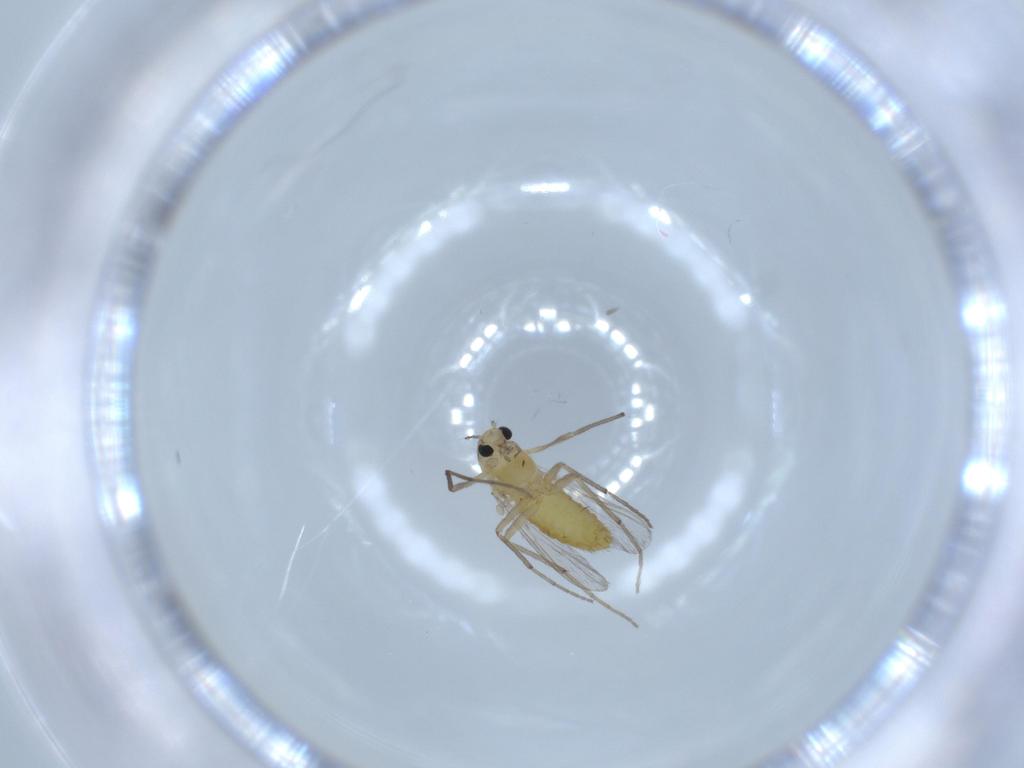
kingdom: Animalia
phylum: Arthropoda
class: Insecta
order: Diptera
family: Chironomidae
